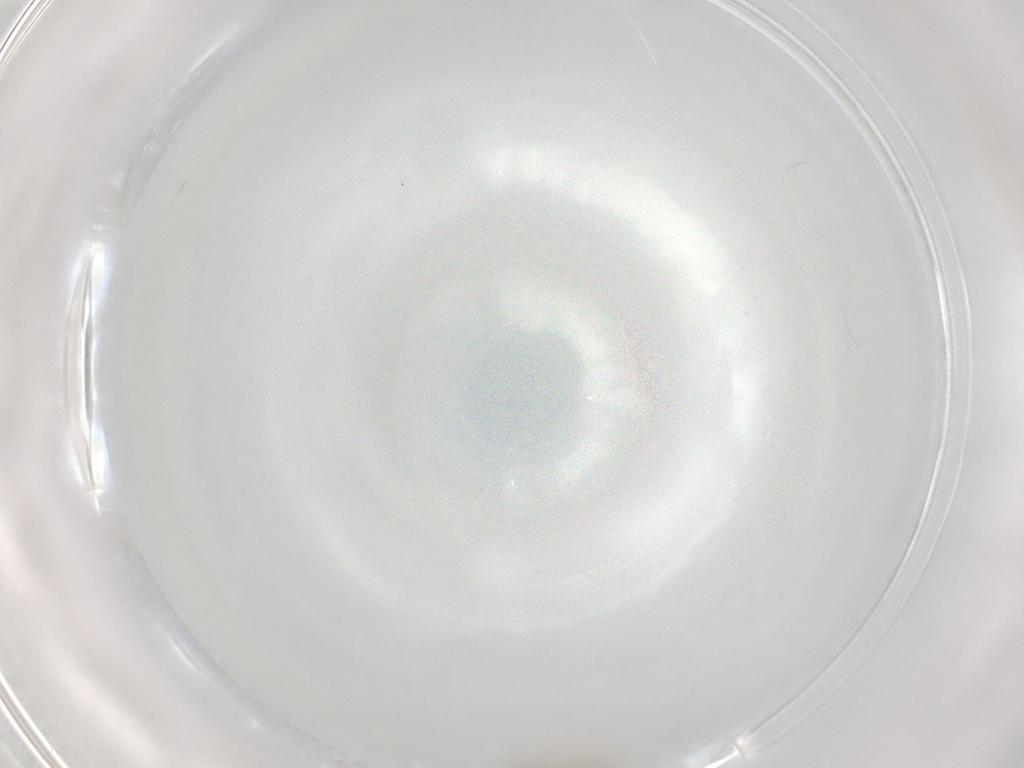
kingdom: Animalia
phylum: Arthropoda
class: Insecta
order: Diptera
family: Cecidomyiidae
